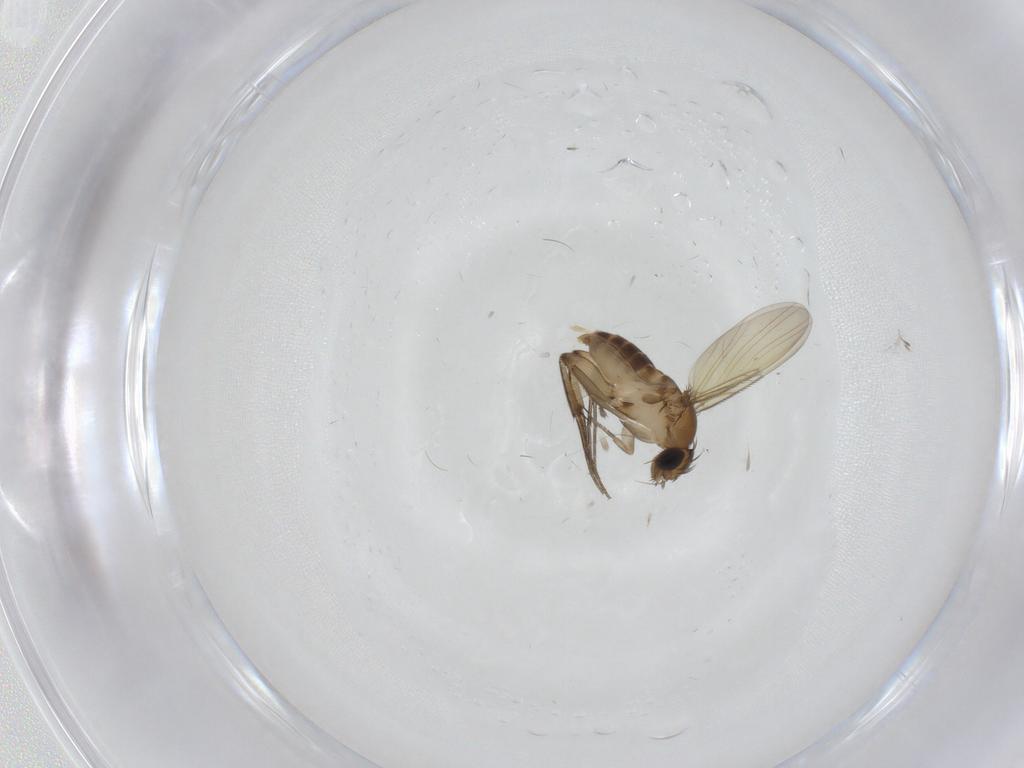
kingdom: Animalia
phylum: Arthropoda
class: Insecta
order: Diptera
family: Phoridae
